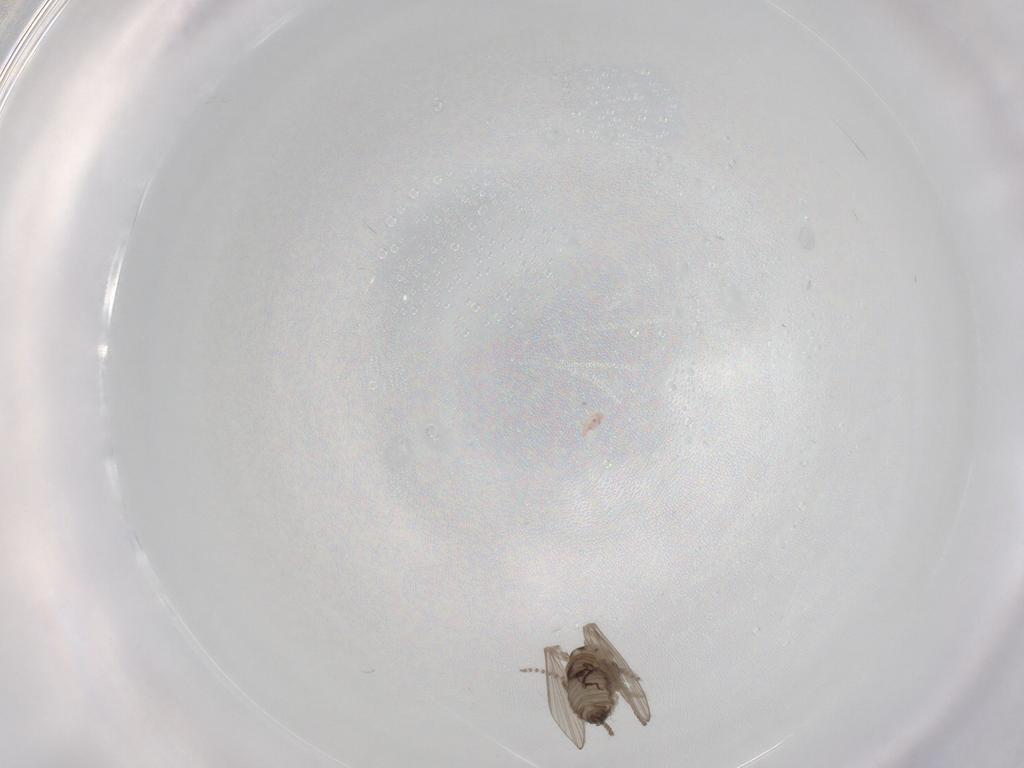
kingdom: Animalia
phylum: Arthropoda
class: Insecta
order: Diptera
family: Psychodidae
